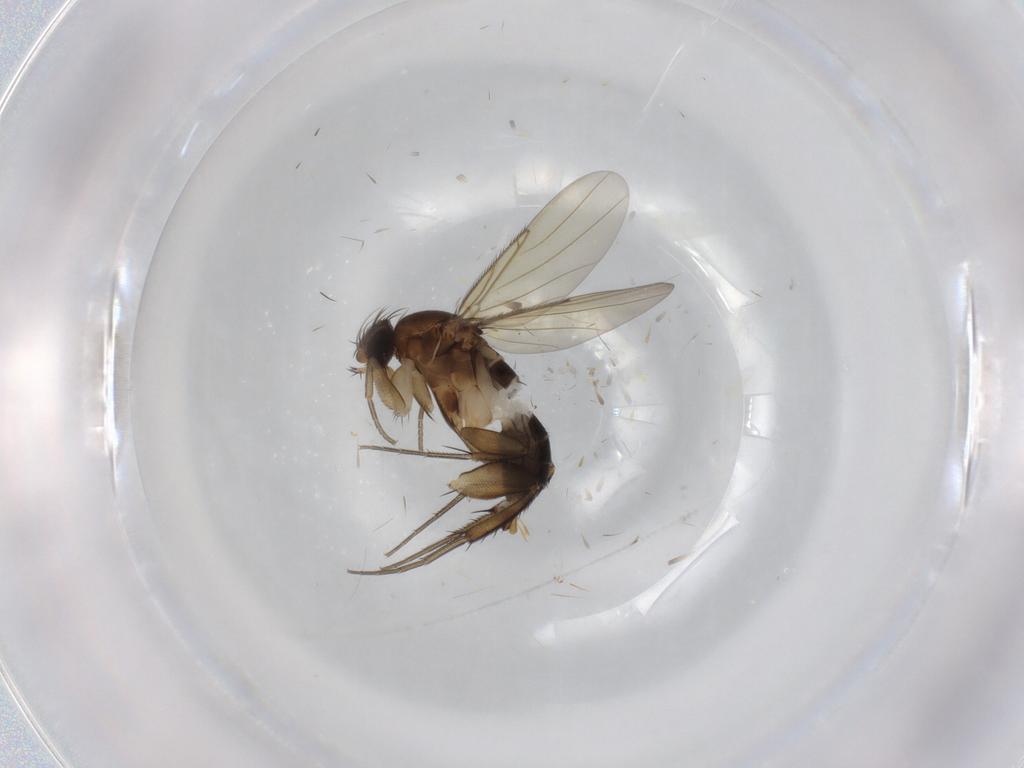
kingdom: Animalia
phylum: Arthropoda
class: Insecta
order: Diptera
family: Phoridae
